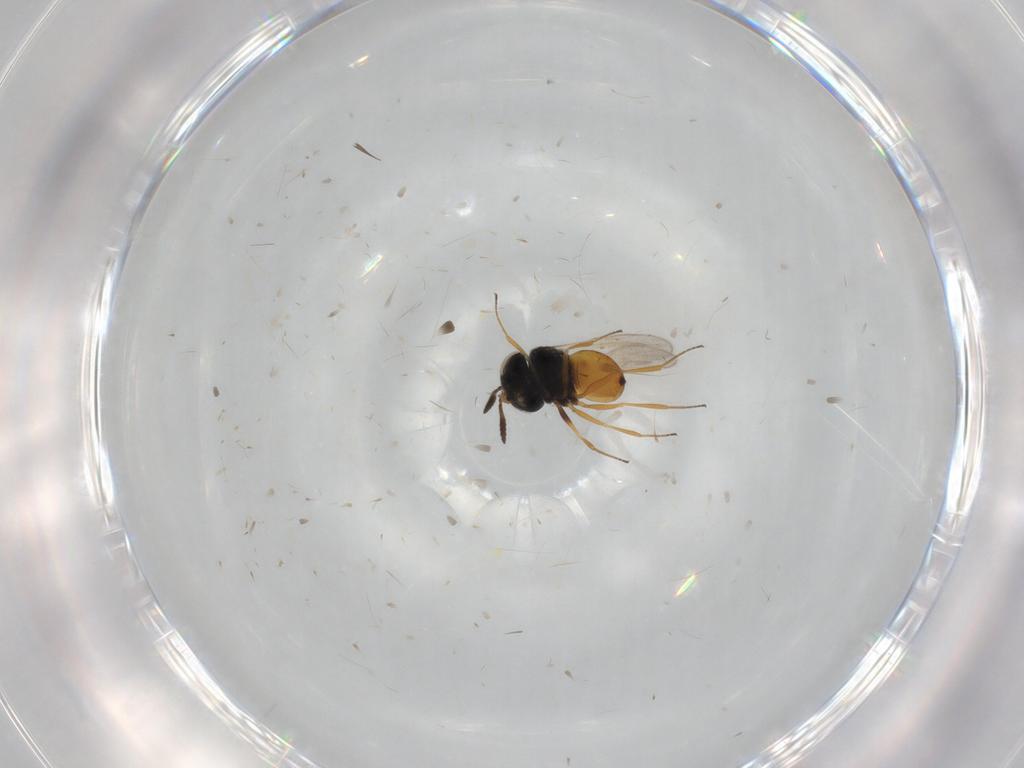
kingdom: Animalia
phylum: Arthropoda
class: Insecta
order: Hymenoptera
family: Scelionidae
